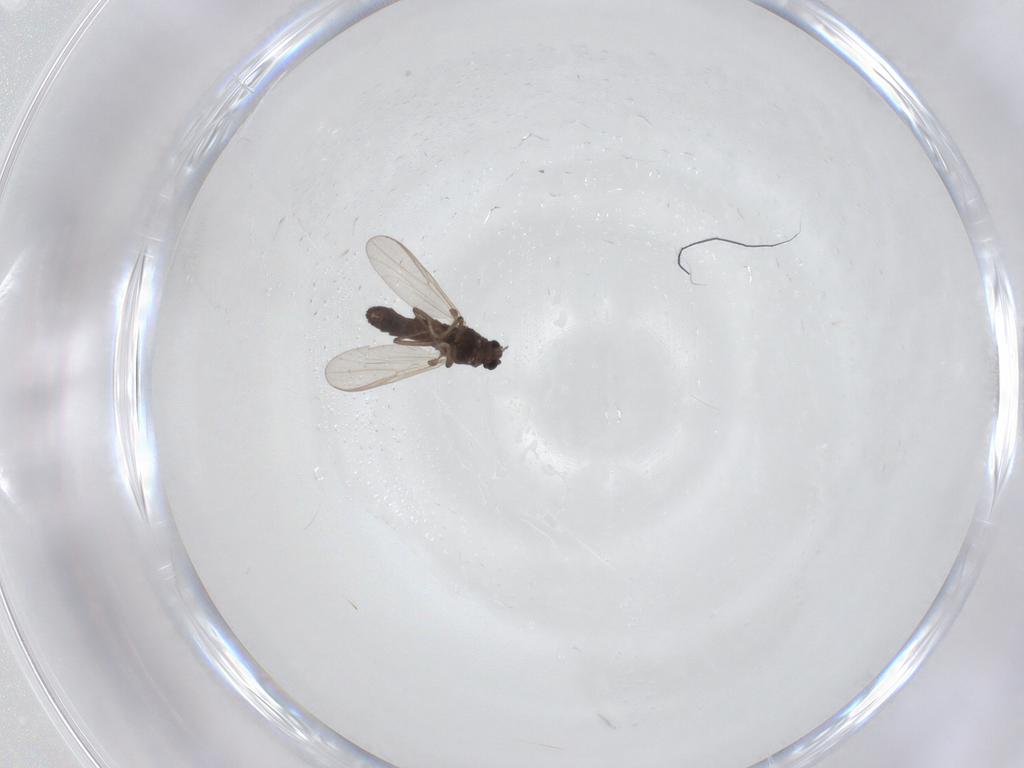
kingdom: Animalia
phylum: Arthropoda
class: Insecta
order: Diptera
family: Chironomidae
